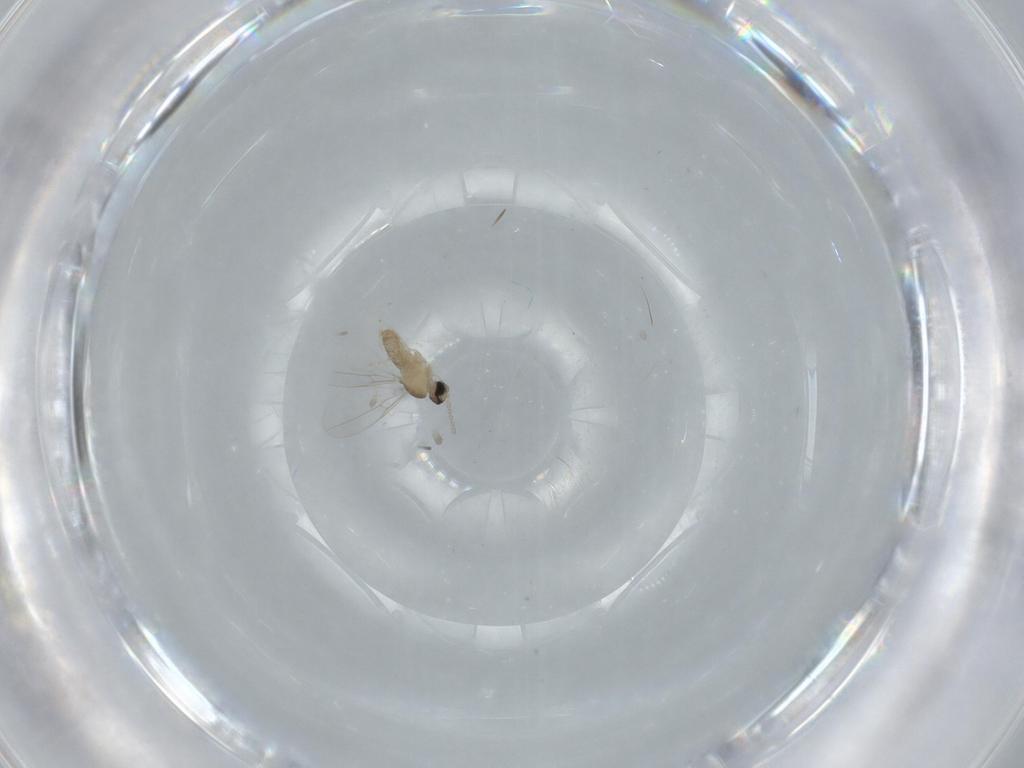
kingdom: Animalia
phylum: Arthropoda
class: Insecta
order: Diptera
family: Cecidomyiidae
